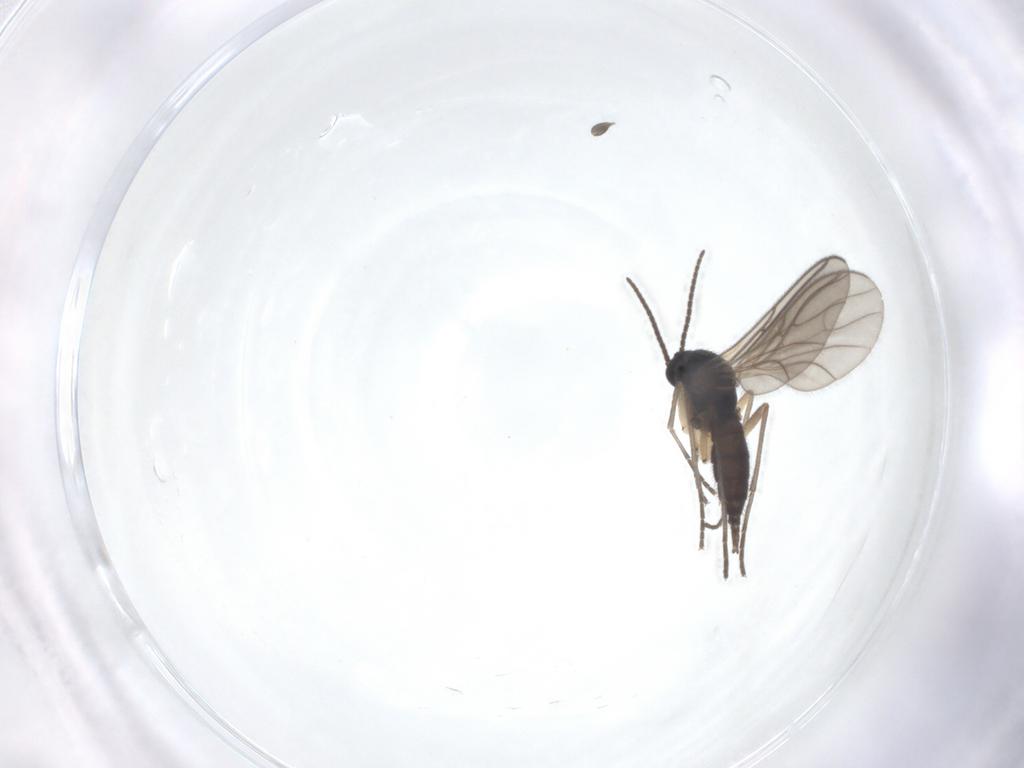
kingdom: Animalia
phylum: Arthropoda
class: Insecta
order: Diptera
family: Sciaridae
